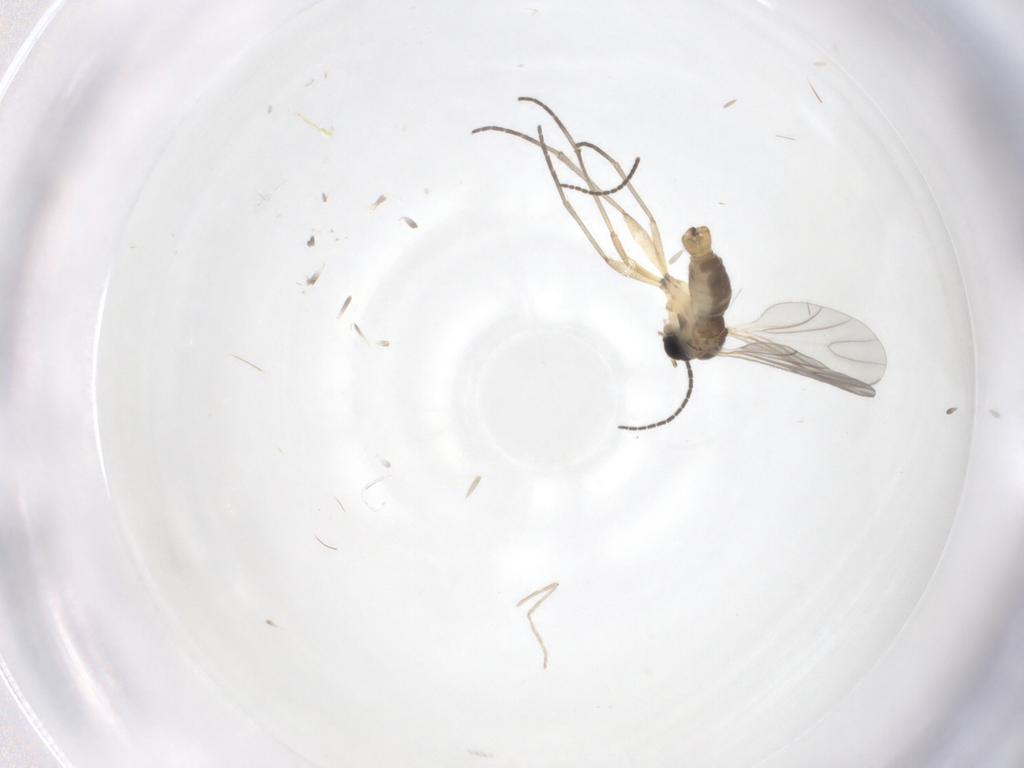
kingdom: Animalia
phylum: Arthropoda
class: Insecta
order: Diptera
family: Cecidomyiidae
